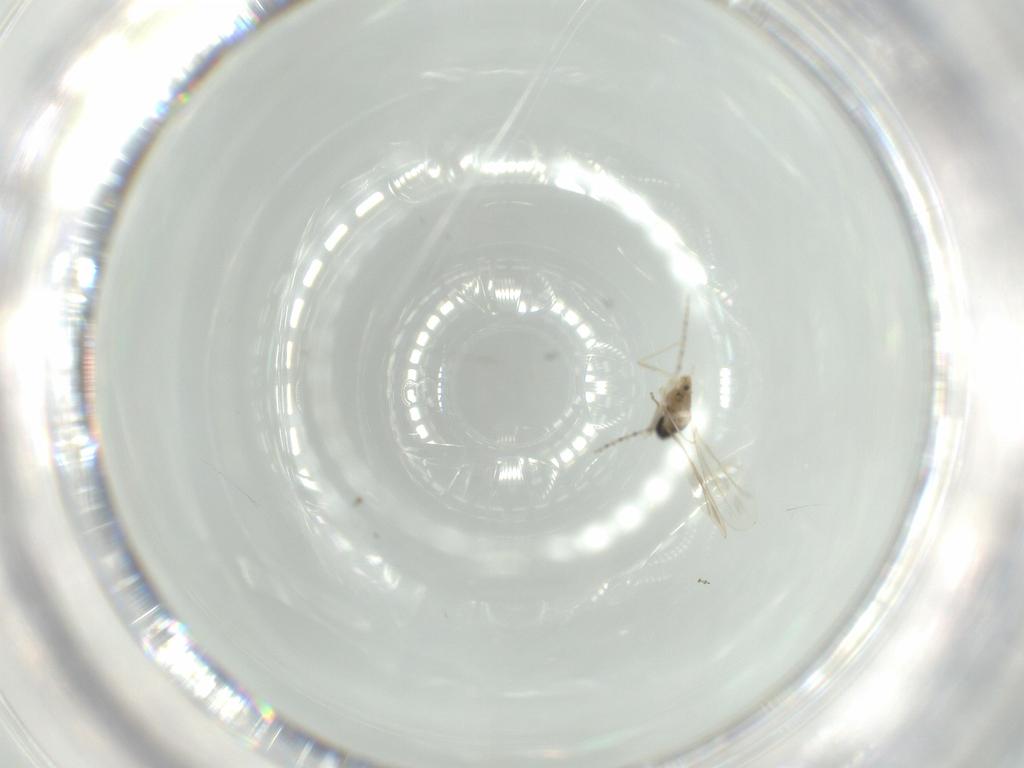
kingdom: Animalia
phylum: Arthropoda
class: Insecta
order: Diptera
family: Cecidomyiidae
